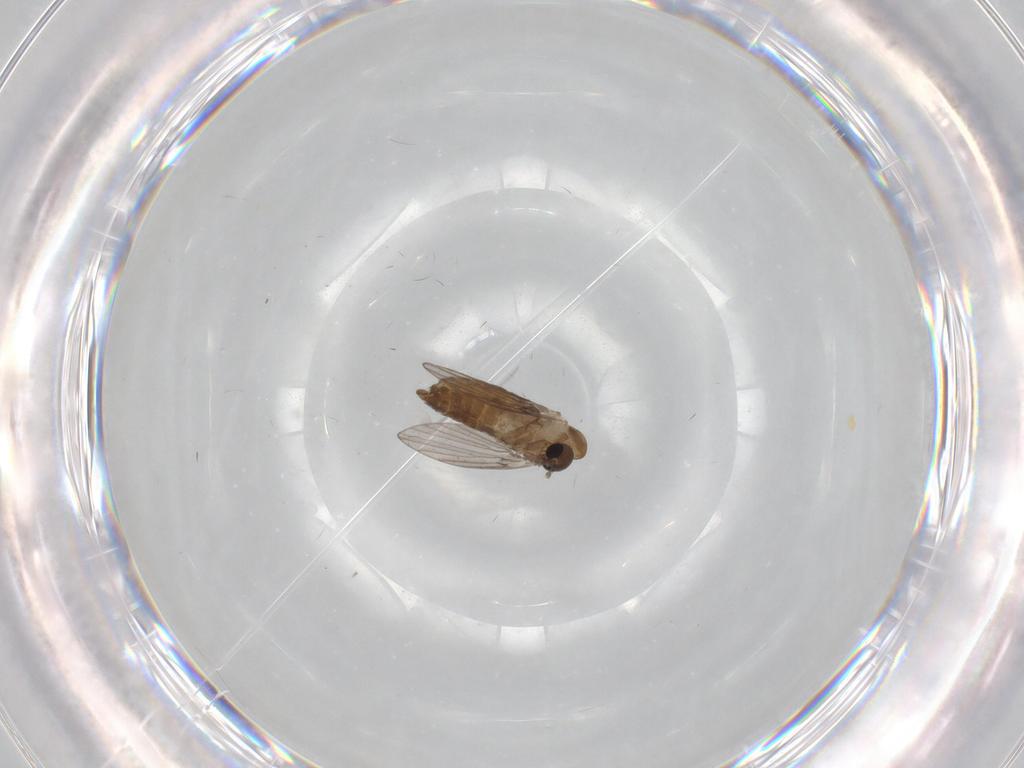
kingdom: Animalia
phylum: Arthropoda
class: Insecta
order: Diptera
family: Psychodidae
